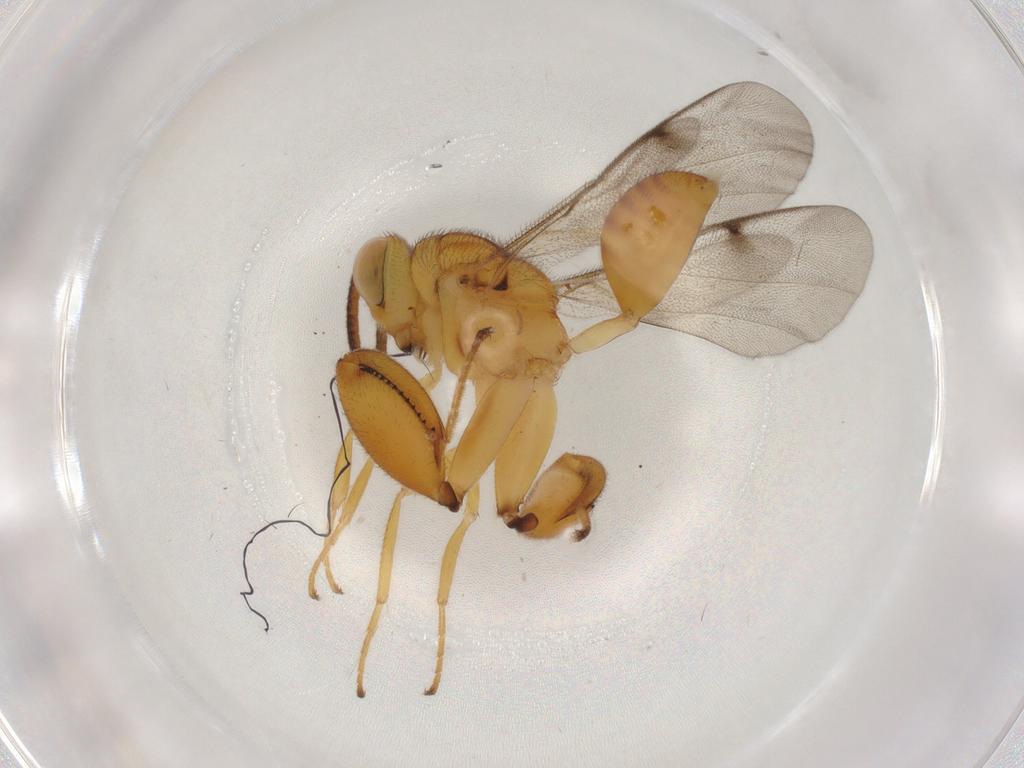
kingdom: Animalia
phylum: Arthropoda
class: Insecta
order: Hymenoptera
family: Chalcididae
